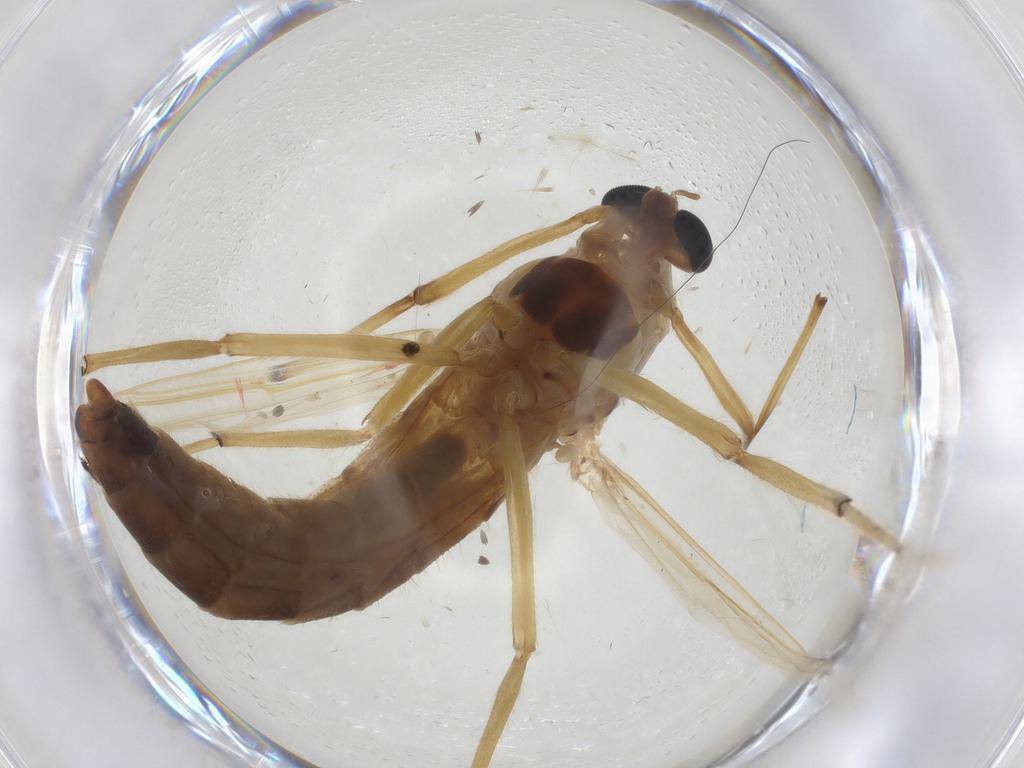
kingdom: Animalia
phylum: Arthropoda
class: Insecta
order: Diptera
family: Chironomidae
